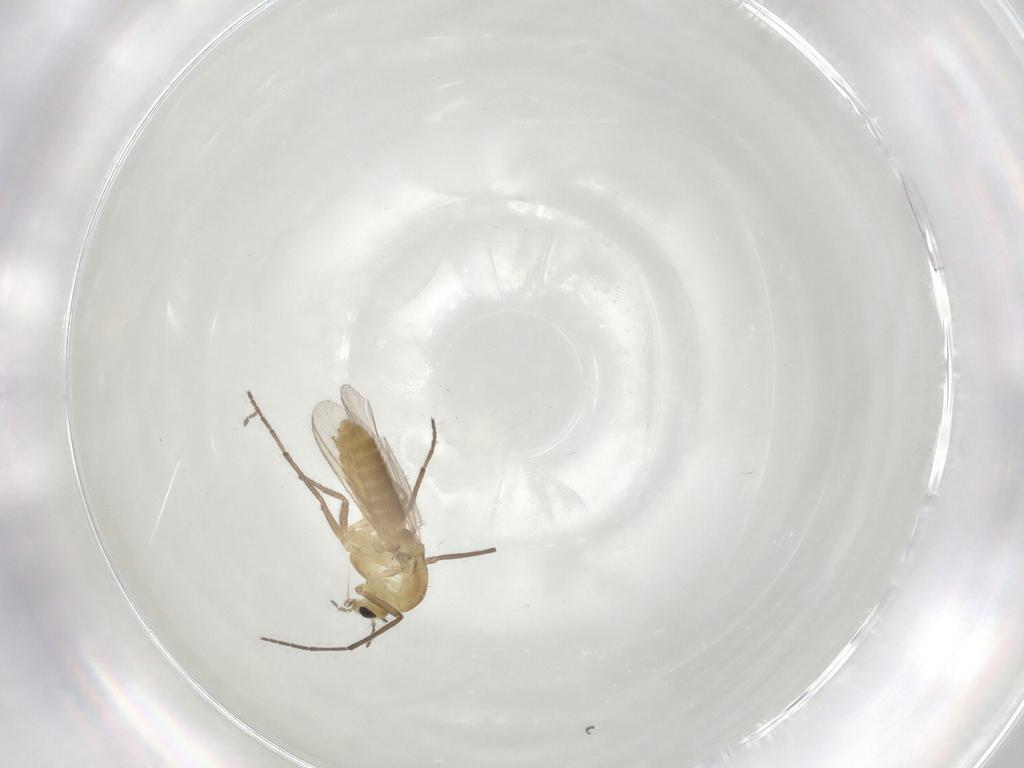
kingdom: Animalia
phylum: Arthropoda
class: Insecta
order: Diptera
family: Chironomidae
